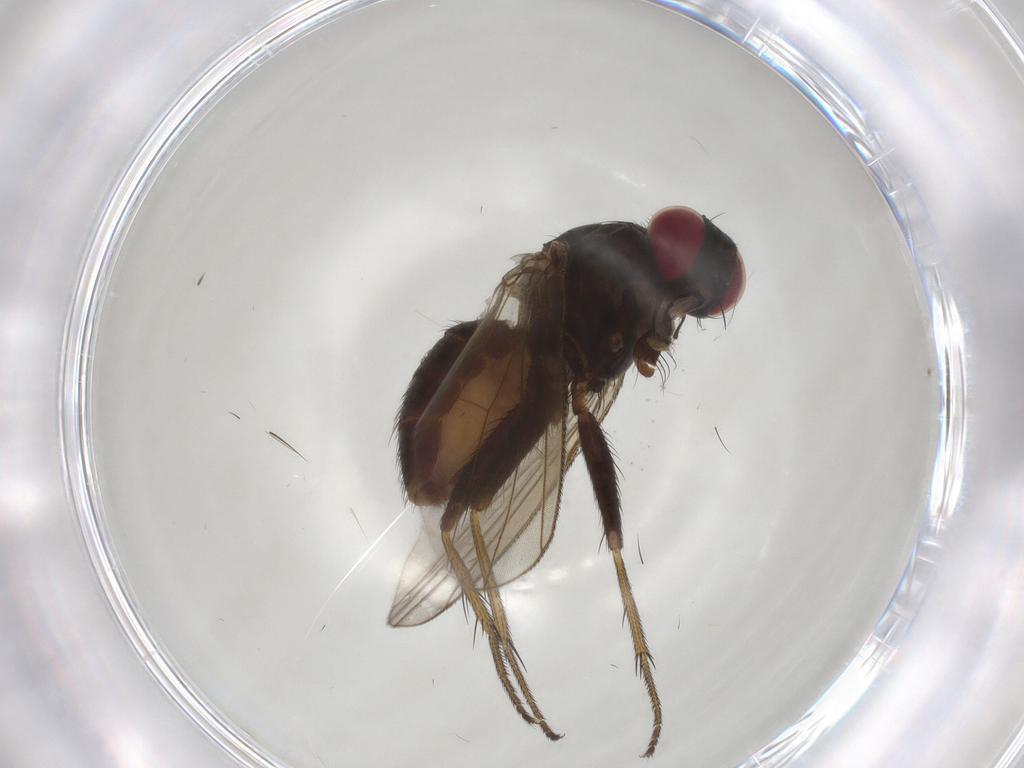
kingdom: Animalia
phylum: Arthropoda
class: Insecta
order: Diptera
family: Muscidae
